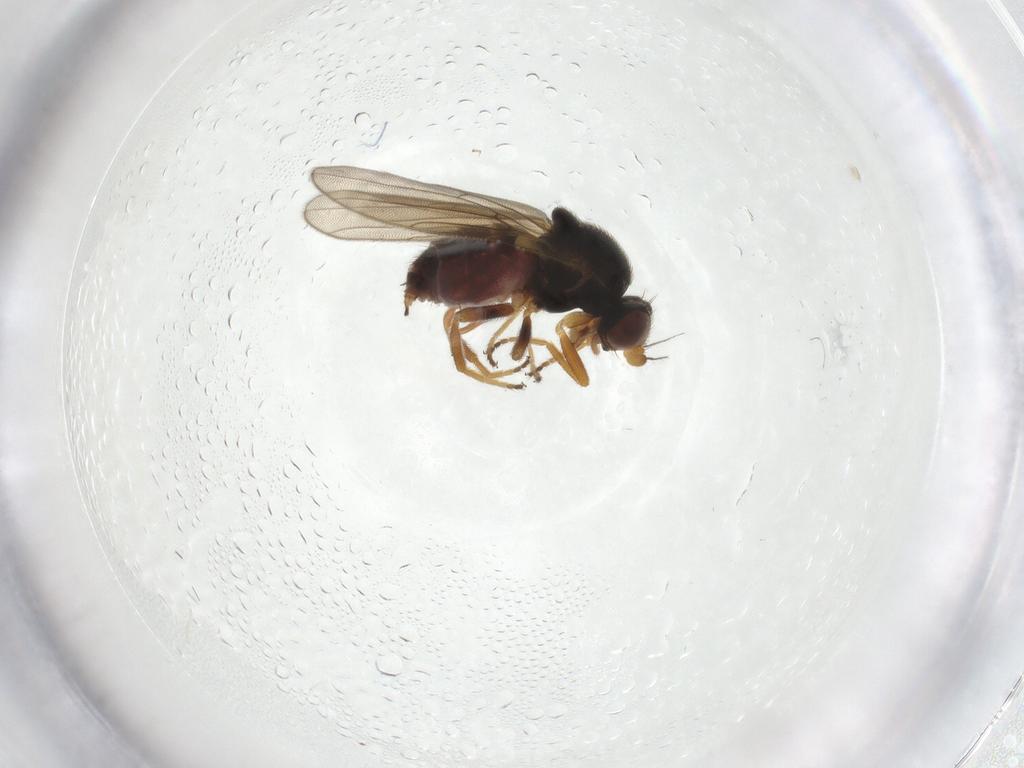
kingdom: Animalia
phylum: Arthropoda
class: Insecta
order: Diptera
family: Chloropidae
